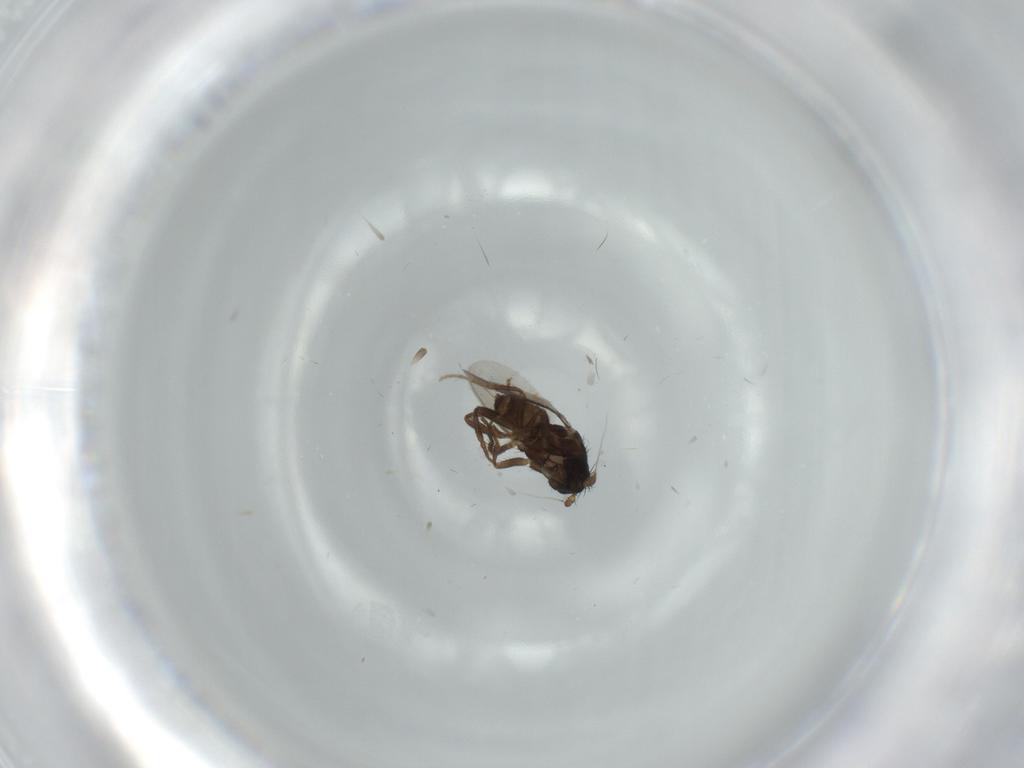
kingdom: Animalia
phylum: Arthropoda
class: Insecta
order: Diptera
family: Sphaeroceridae
